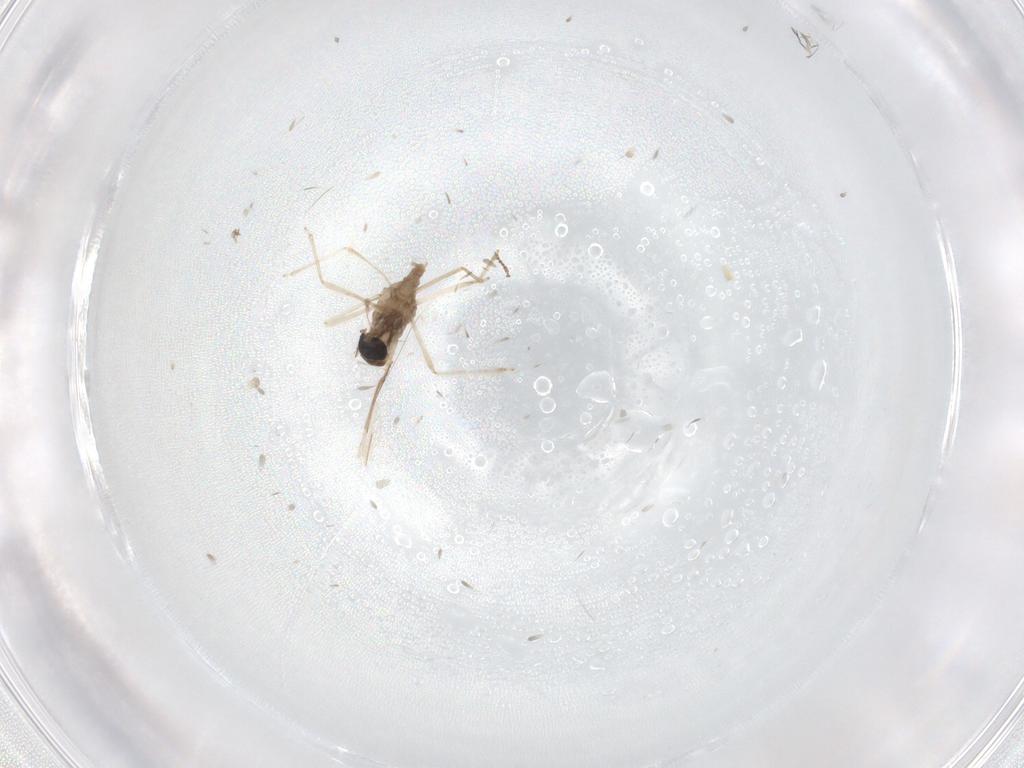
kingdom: Animalia
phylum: Arthropoda
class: Insecta
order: Diptera
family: Cecidomyiidae
